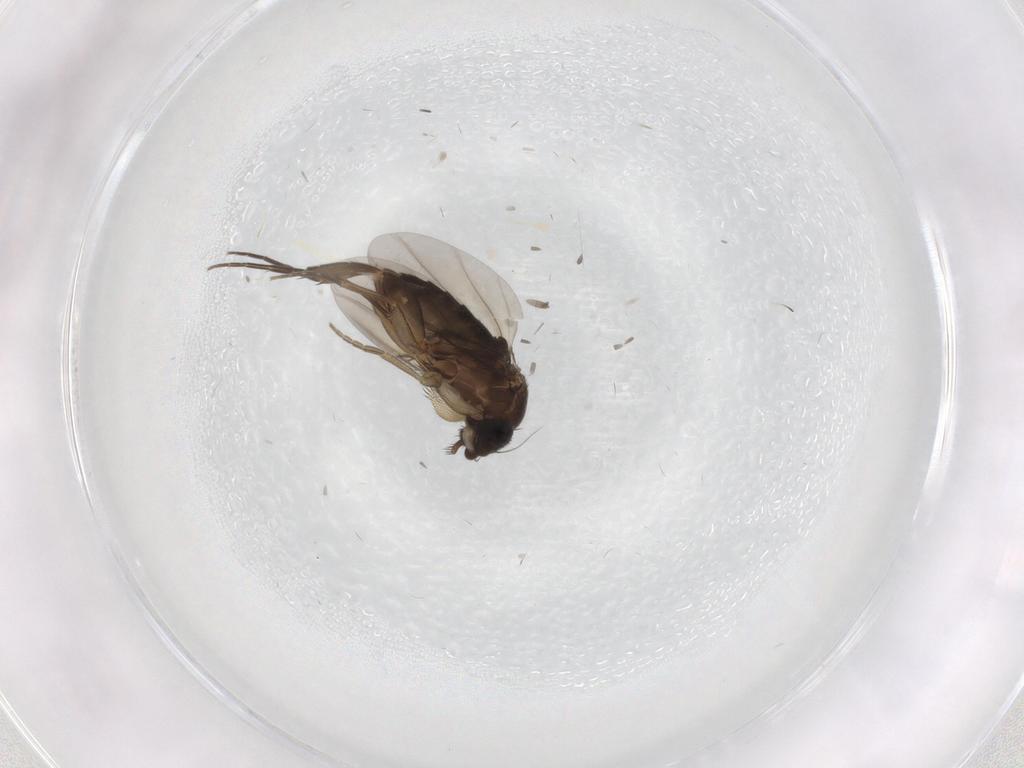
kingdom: Animalia
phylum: Arthropoda
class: Insecta
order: Diptera
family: Phoridae
